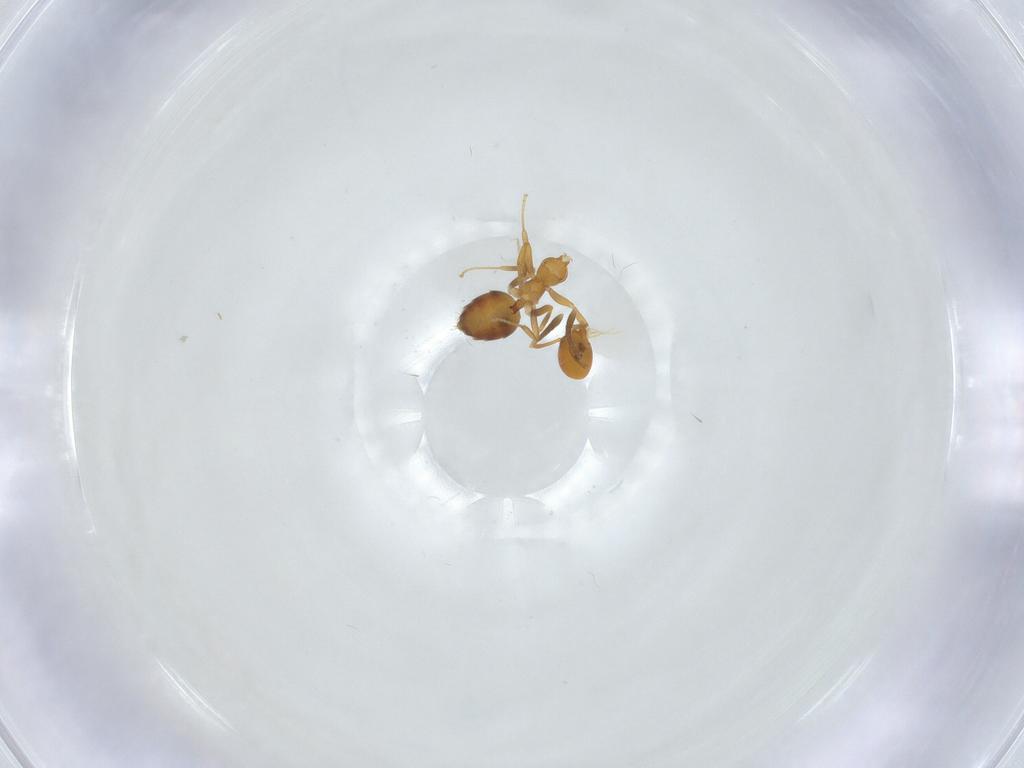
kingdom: Animalia
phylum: Arthropoda
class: Insecta
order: Hymenoptera
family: Formicidae
